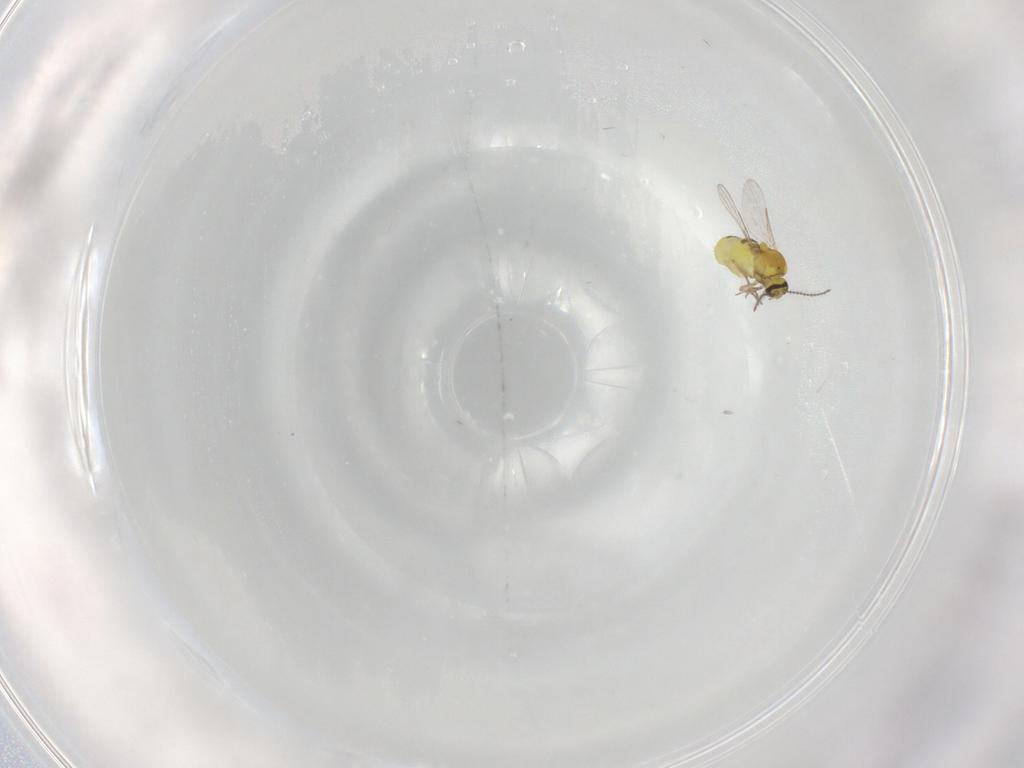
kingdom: Animalia
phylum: Arthropoda
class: Insecta
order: Diptera
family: Ceratopogonidae
